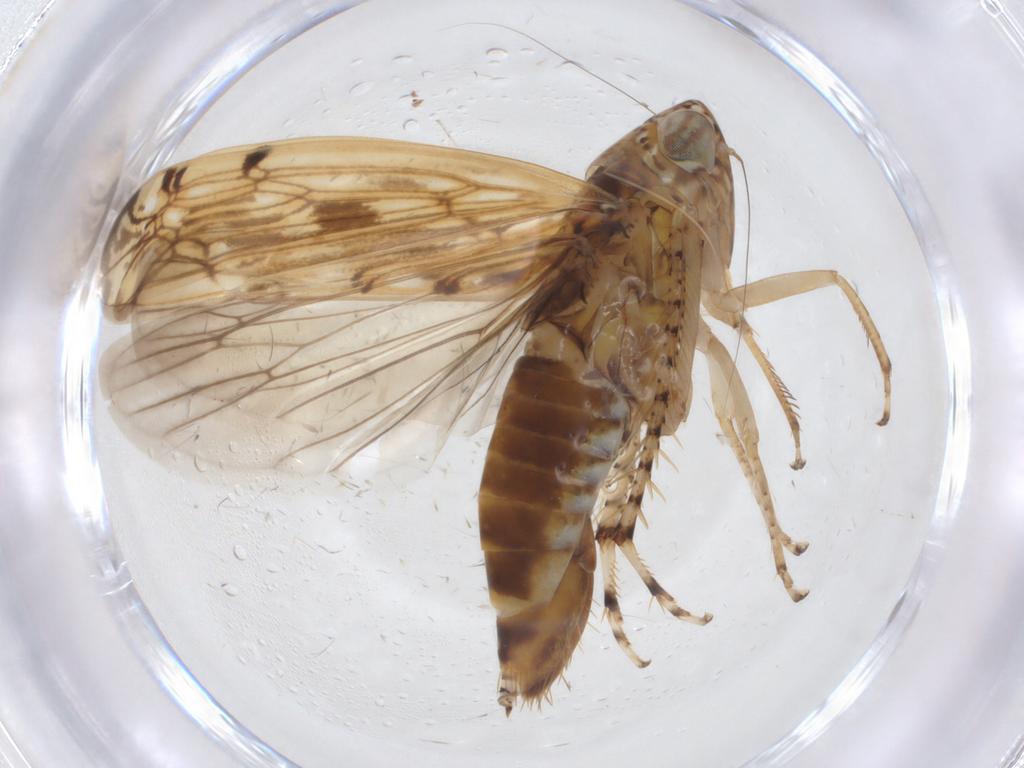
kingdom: Animalia
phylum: Arthropoda
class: Insecta
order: Hemiptera
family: Cicadellidae
